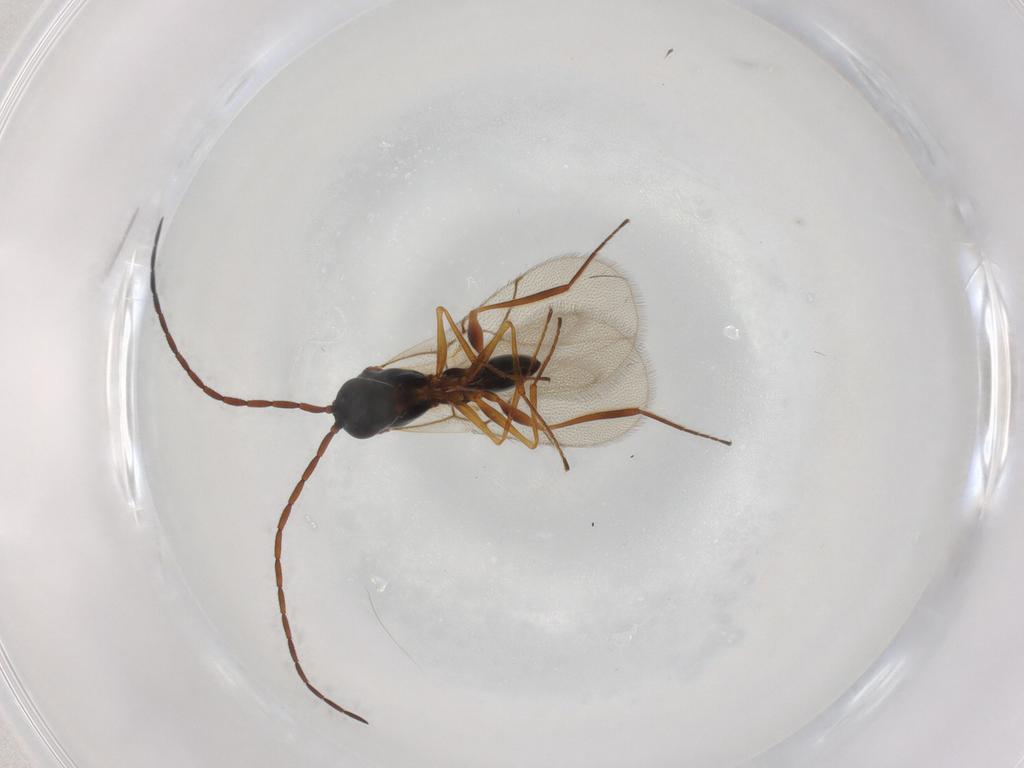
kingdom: Animalia
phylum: Arthropoda
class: Insecta
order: Hymenoptera
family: Figitidae
